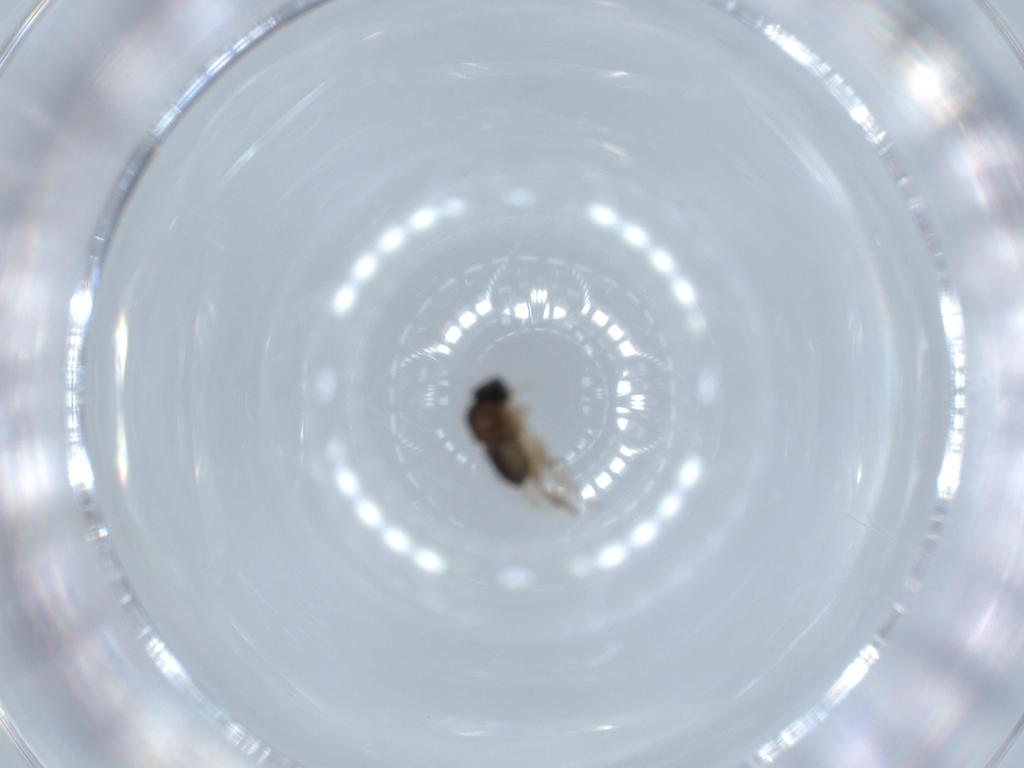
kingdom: Animalia
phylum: Arthropoda
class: Insecta
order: Diptera
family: Phoridae
